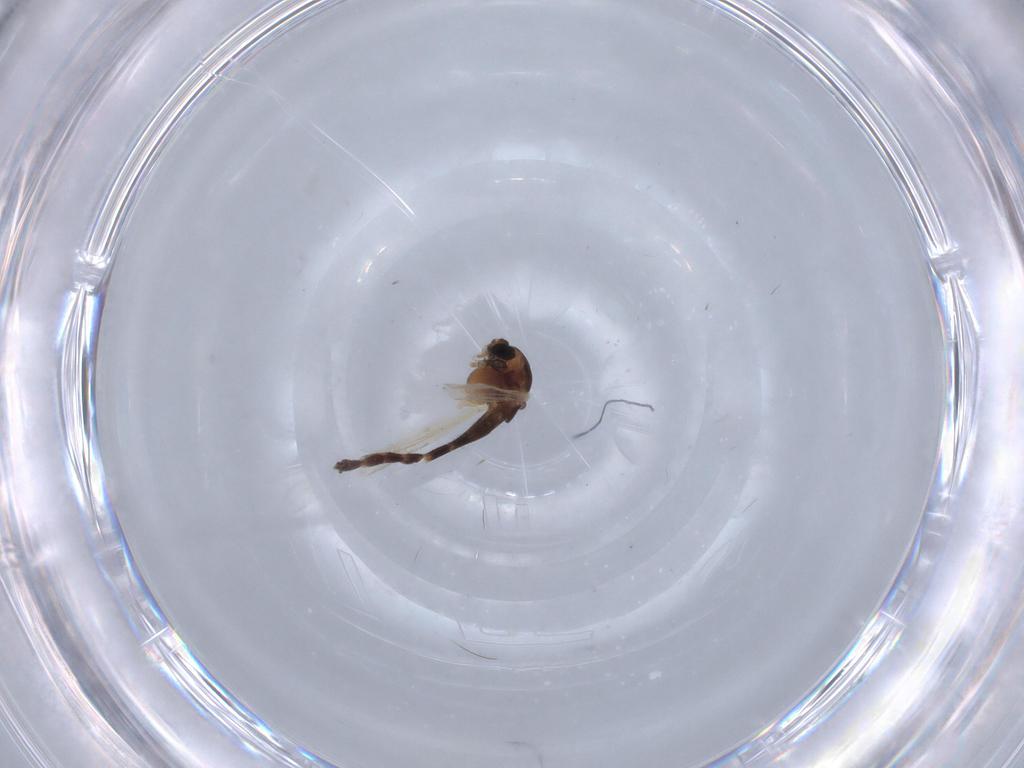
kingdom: Animalia
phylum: Arthropoda
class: Insecta
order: Diptera
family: Chironomidae
